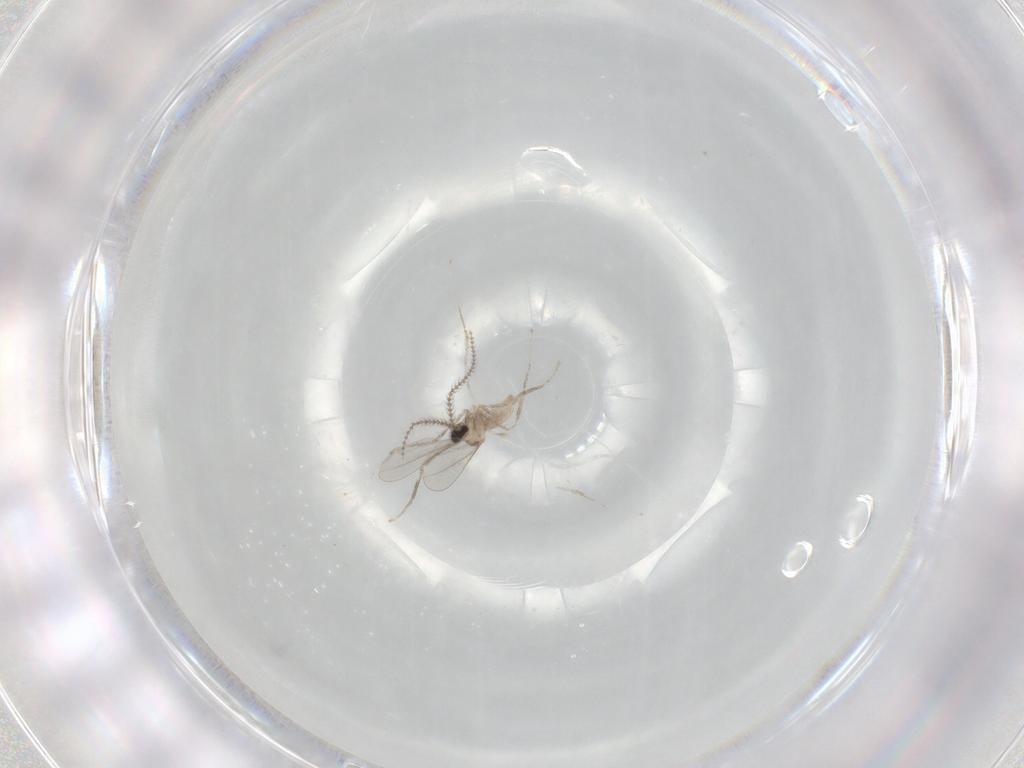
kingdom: Animalia
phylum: Arthropoda
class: Insecta
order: Diptera
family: Cecidomyiidae
